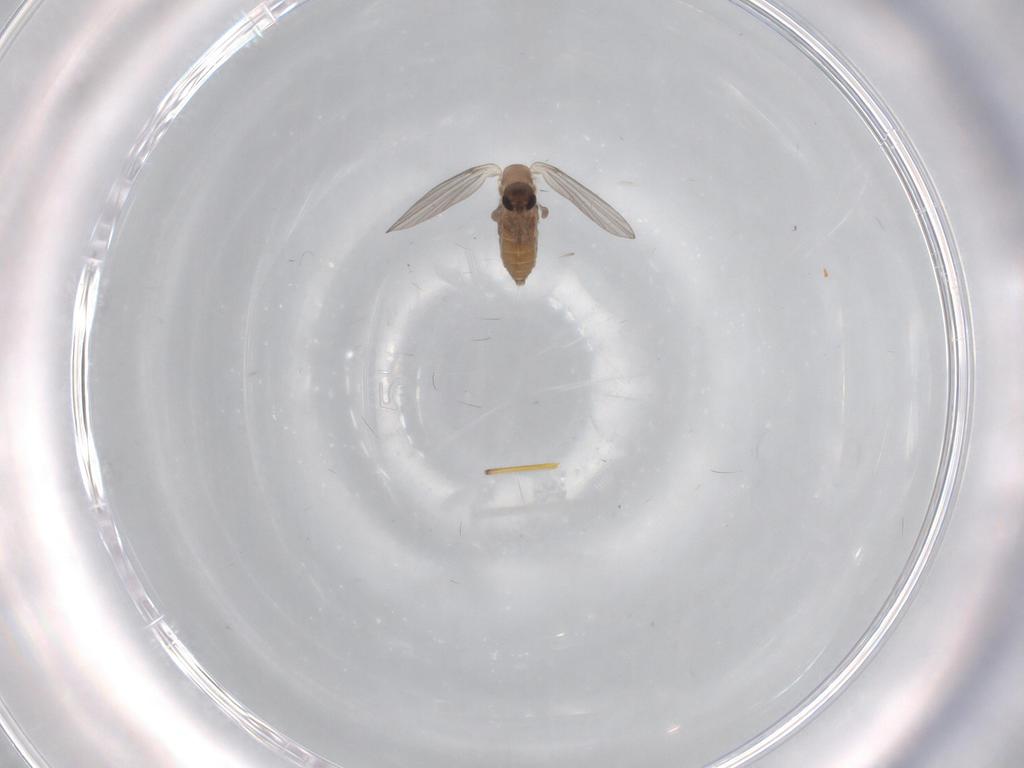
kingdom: Animalia
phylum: Arthropoda
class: Insecta
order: Diptera
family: Psychodidae
